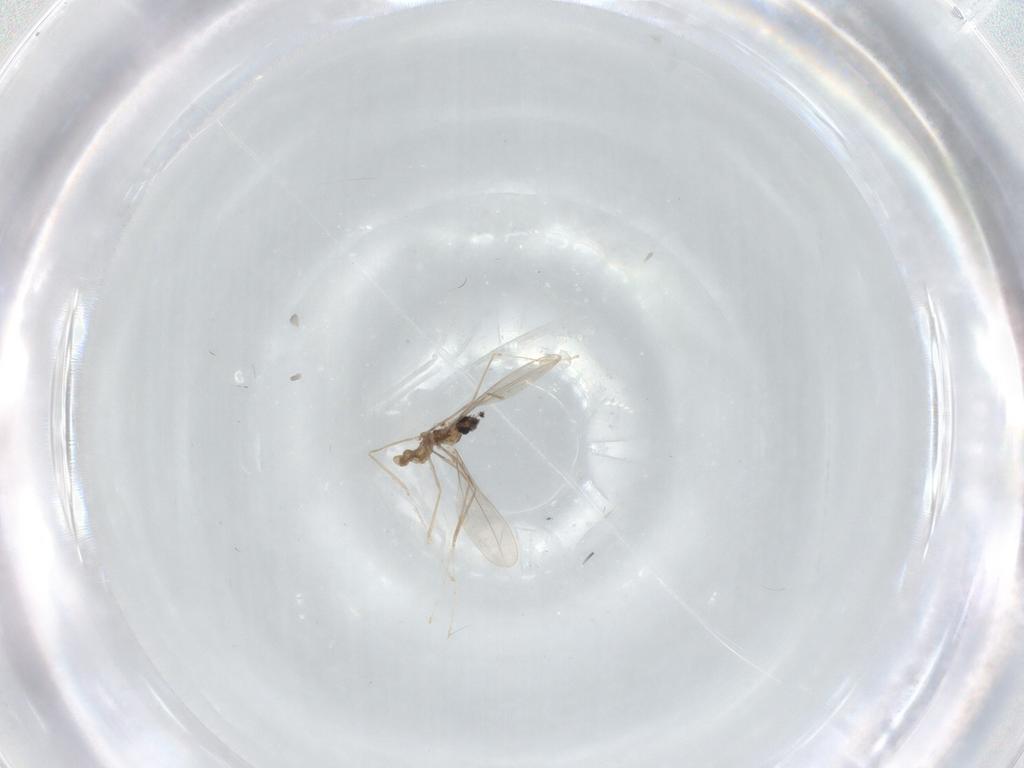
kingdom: Animalia
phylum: Arthropoda
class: Insecta
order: Diptera
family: Cecidomyiidae
